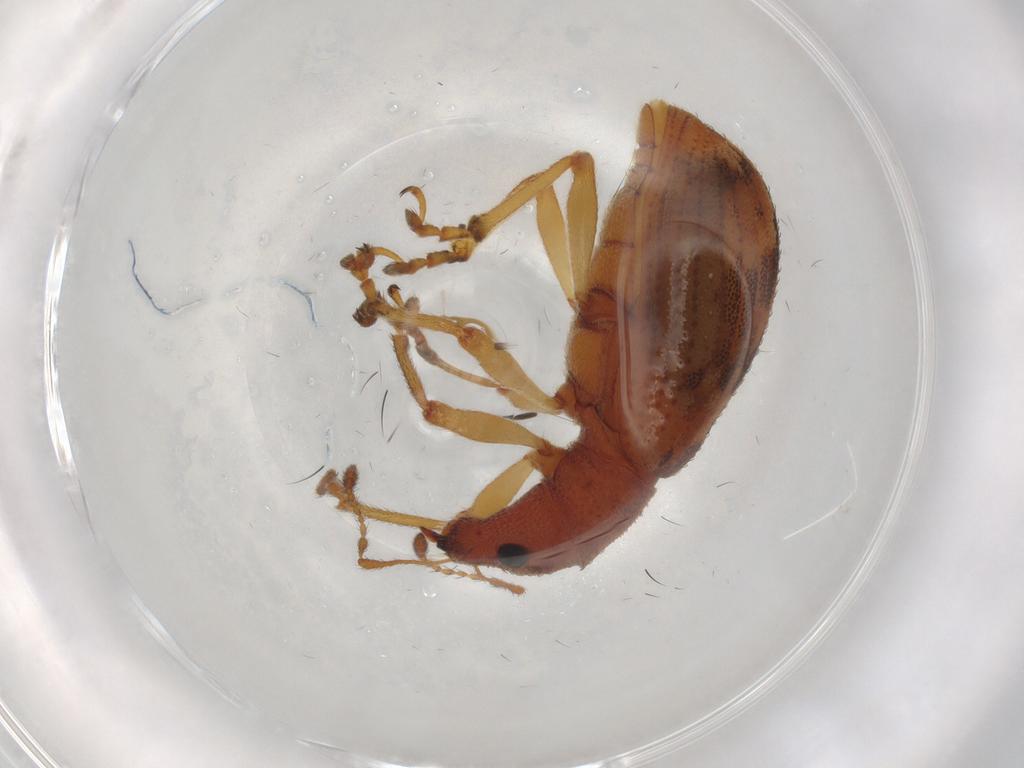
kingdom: Animalia
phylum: Arthropoda
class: Insecta
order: Coleoptera
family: Curculionidae
